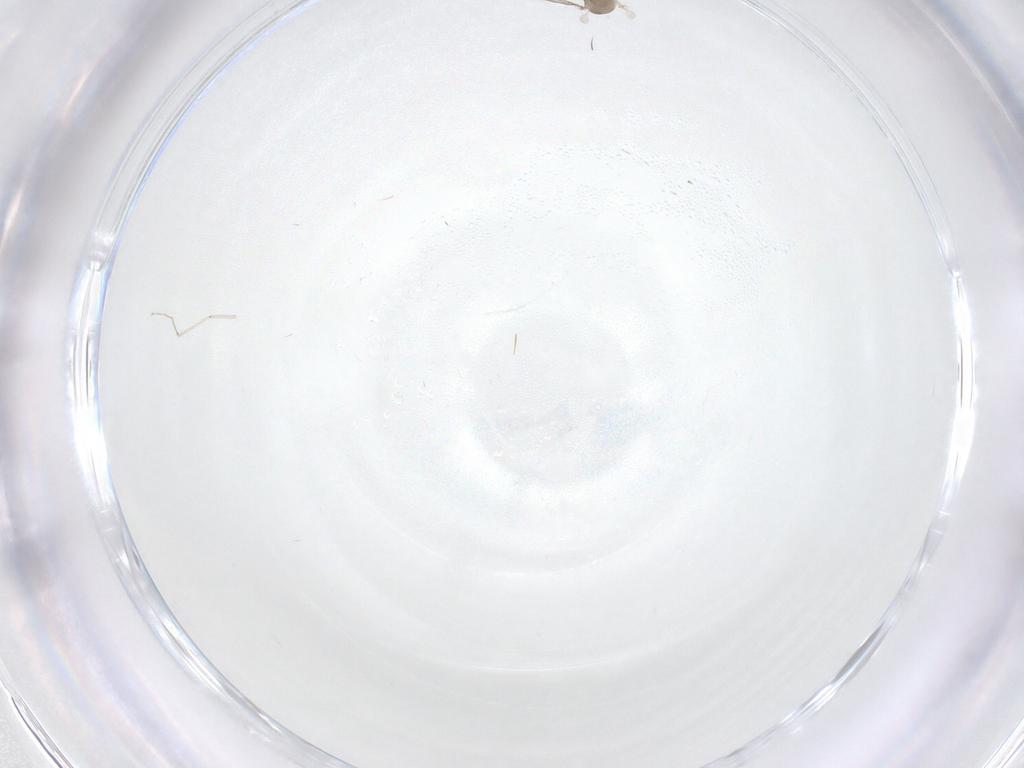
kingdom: Animalia
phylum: Arthropoda
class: Insecta
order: Diptera
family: Cecidomyiidae
